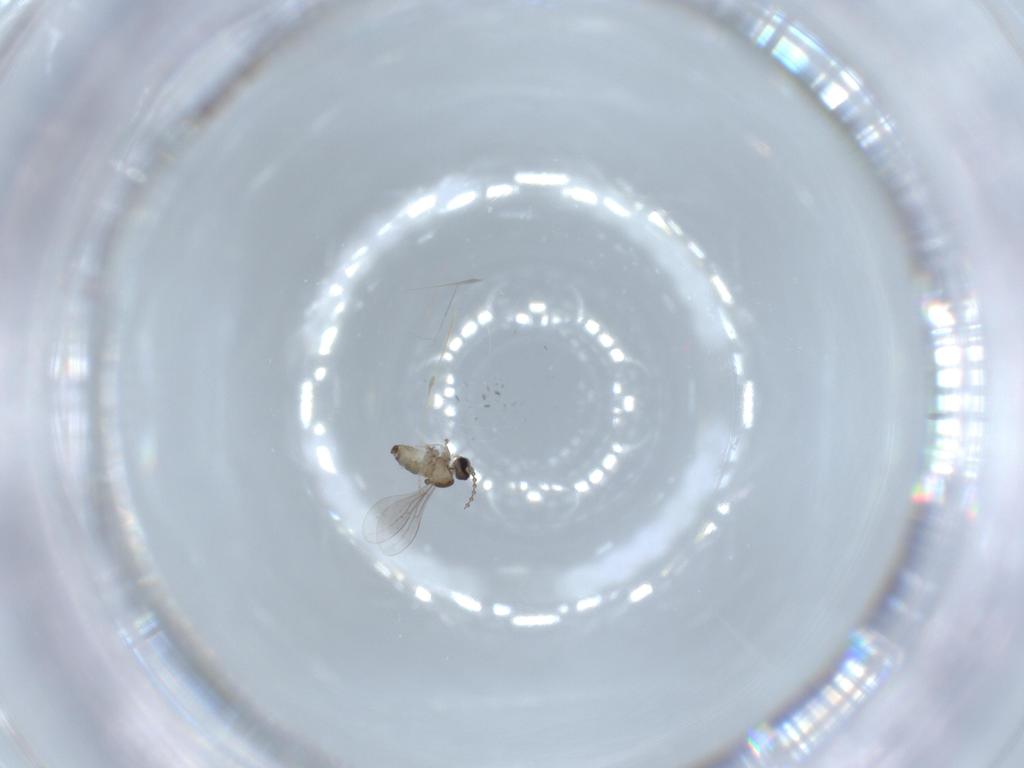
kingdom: Animalia
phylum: Arthropoda
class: Insecta
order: Diptera
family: Cecidomyiidae
